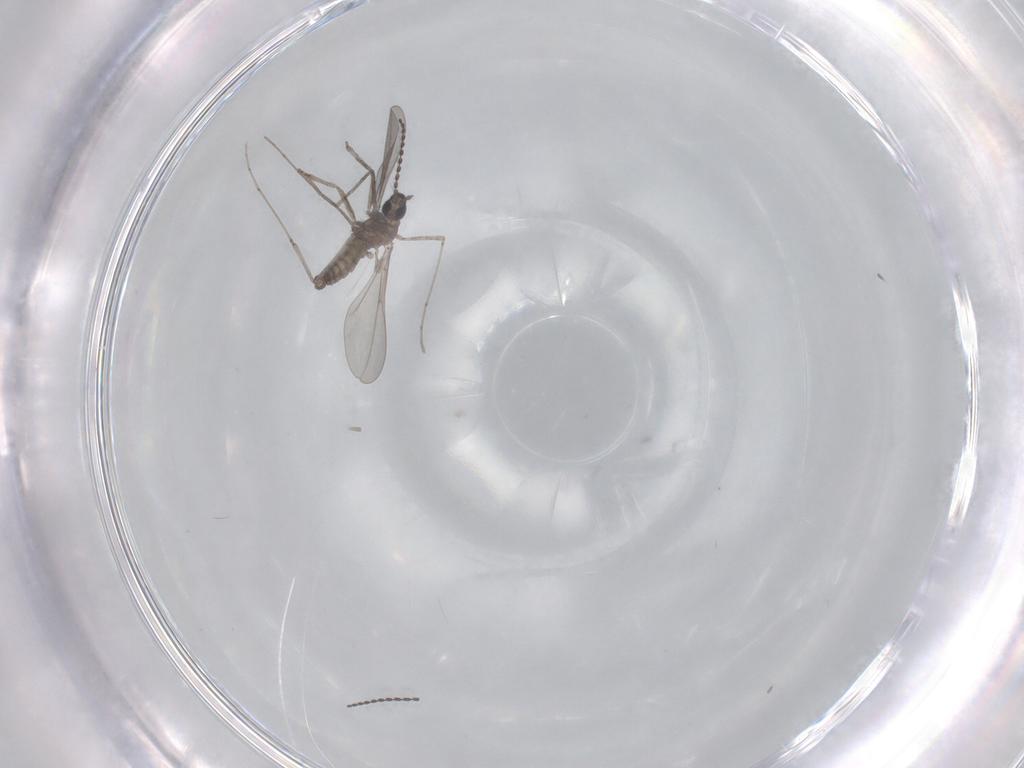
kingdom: Animalia
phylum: Arthropoda
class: Insecta
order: Diptera
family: Cecidomyiidae
